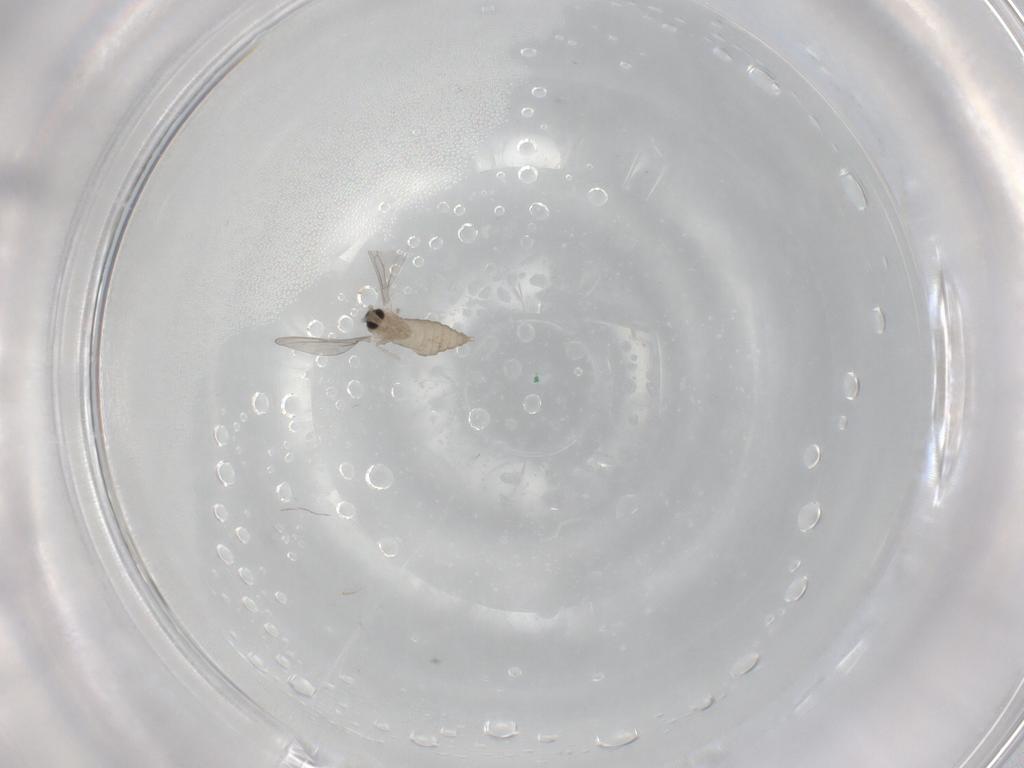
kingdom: Animalia
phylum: Arthropoda
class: Insecta
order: Diptera
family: Cecidomyiidae
